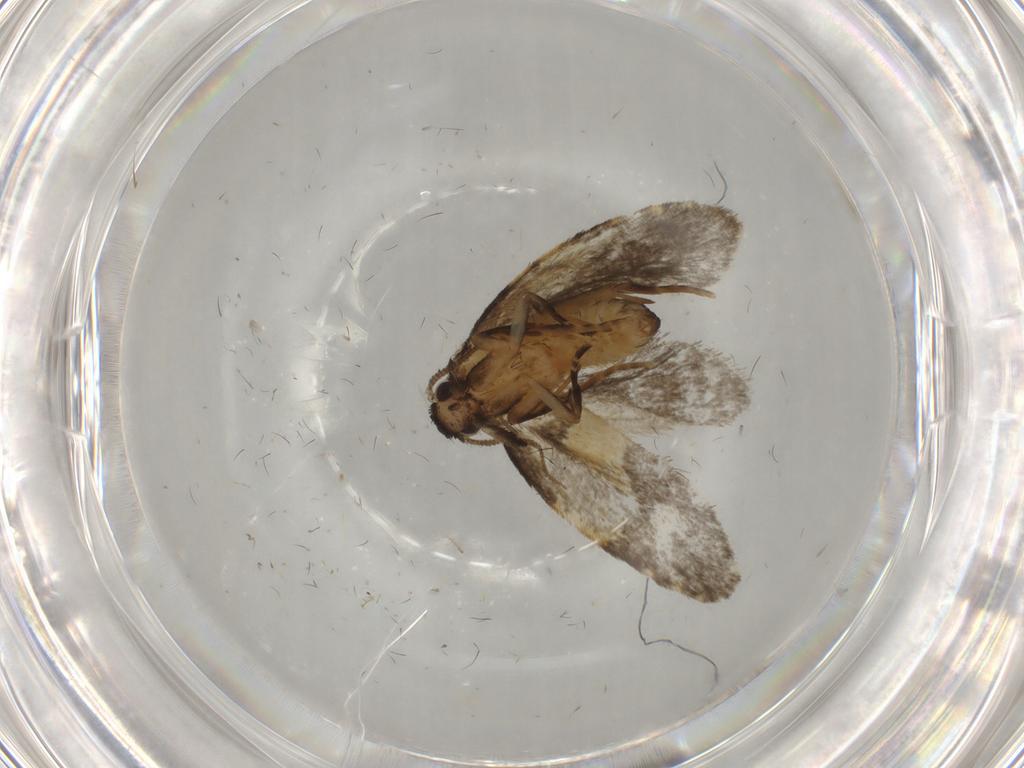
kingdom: Animalia
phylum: Arthropoda
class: Insecta
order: Lepidoptera
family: Psychidae
